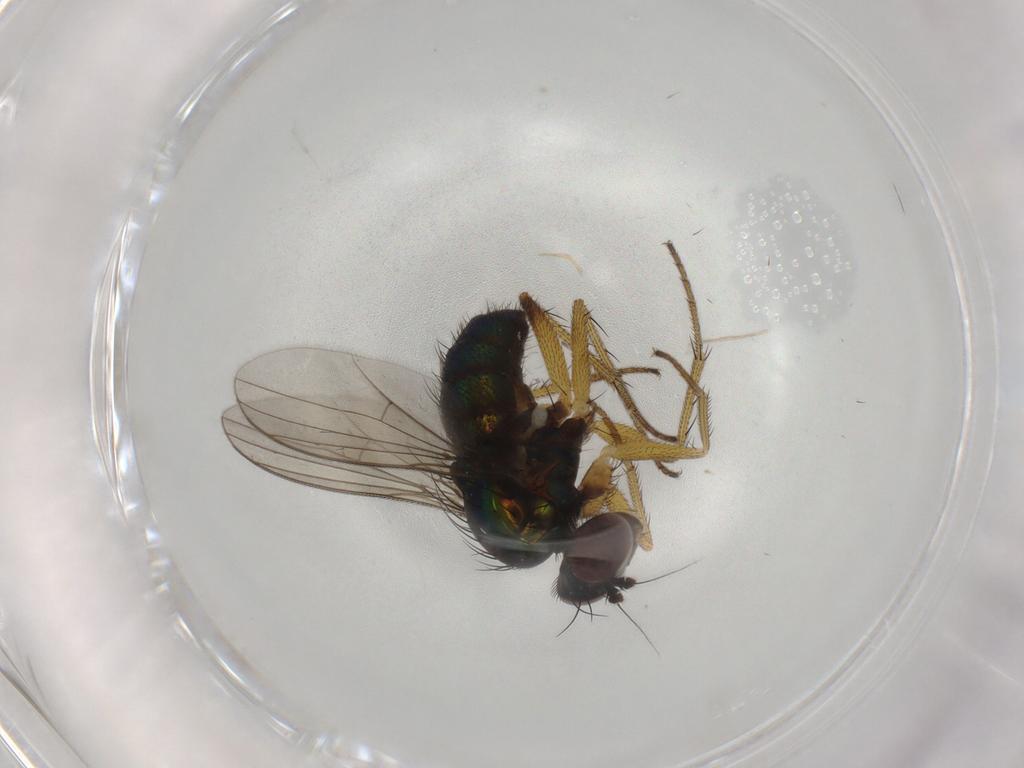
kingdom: Animalia
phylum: Arthropoda
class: Insecta
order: Diptera
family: Dolichopodidae
